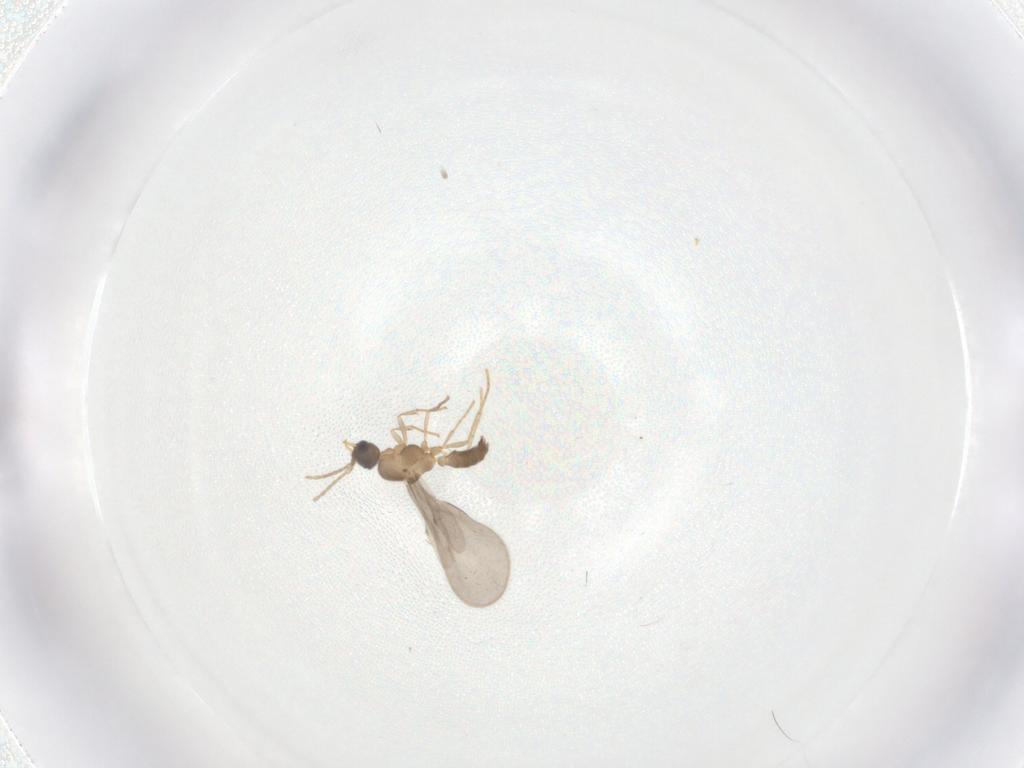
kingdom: Animalia
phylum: Arthropoda
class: Insecta
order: Hymenoptera
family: Formicidae
